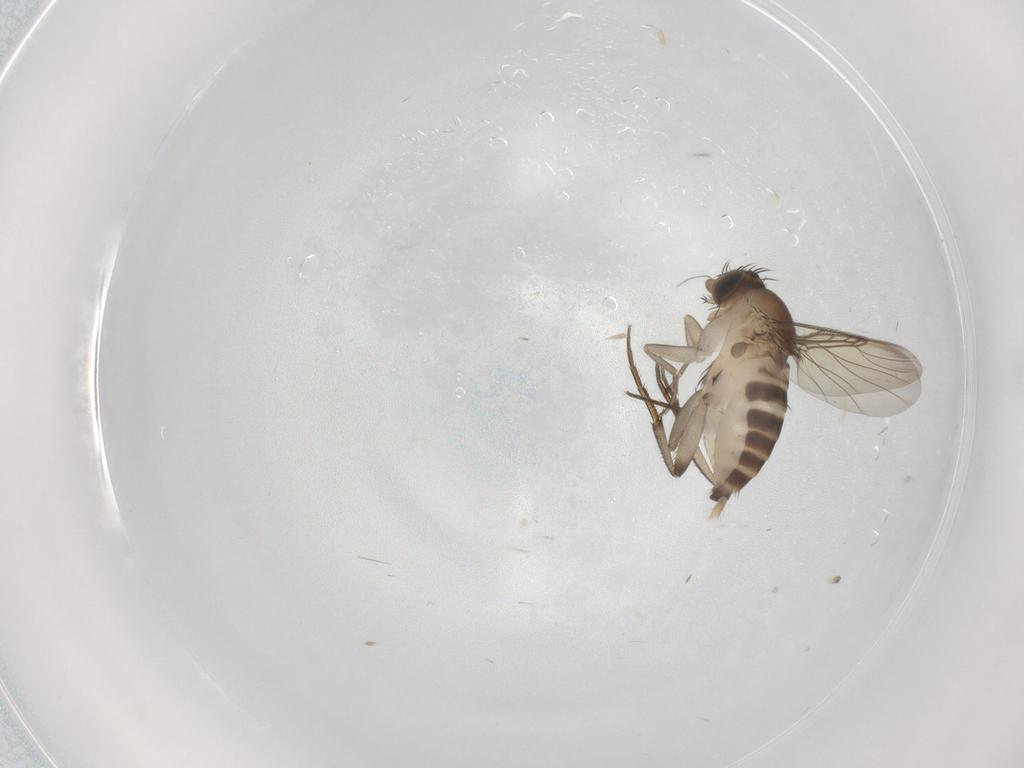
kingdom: Animalia
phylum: Arthropoda
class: Insecta
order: Diptera
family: Phoridae
